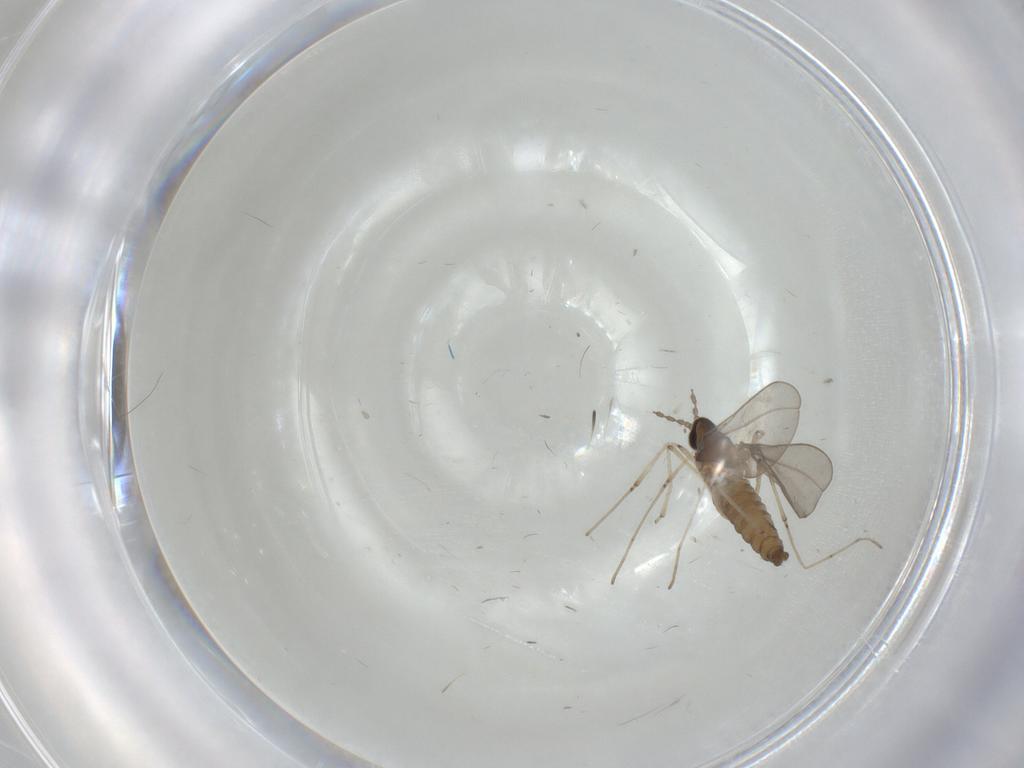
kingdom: Animalia
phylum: Arthropoda
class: Insecta
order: Diptera
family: Cecidomyiidae
